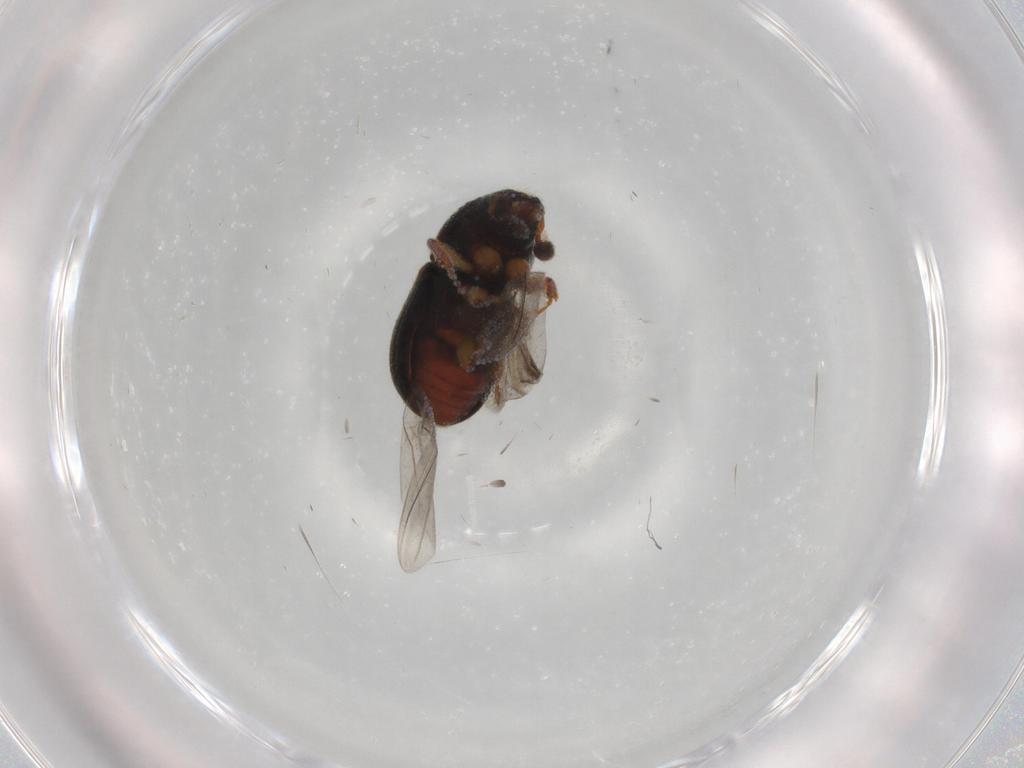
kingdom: Animalia
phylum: Arthropoda
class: Insecta
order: Coleoptera
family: Curculionidae
